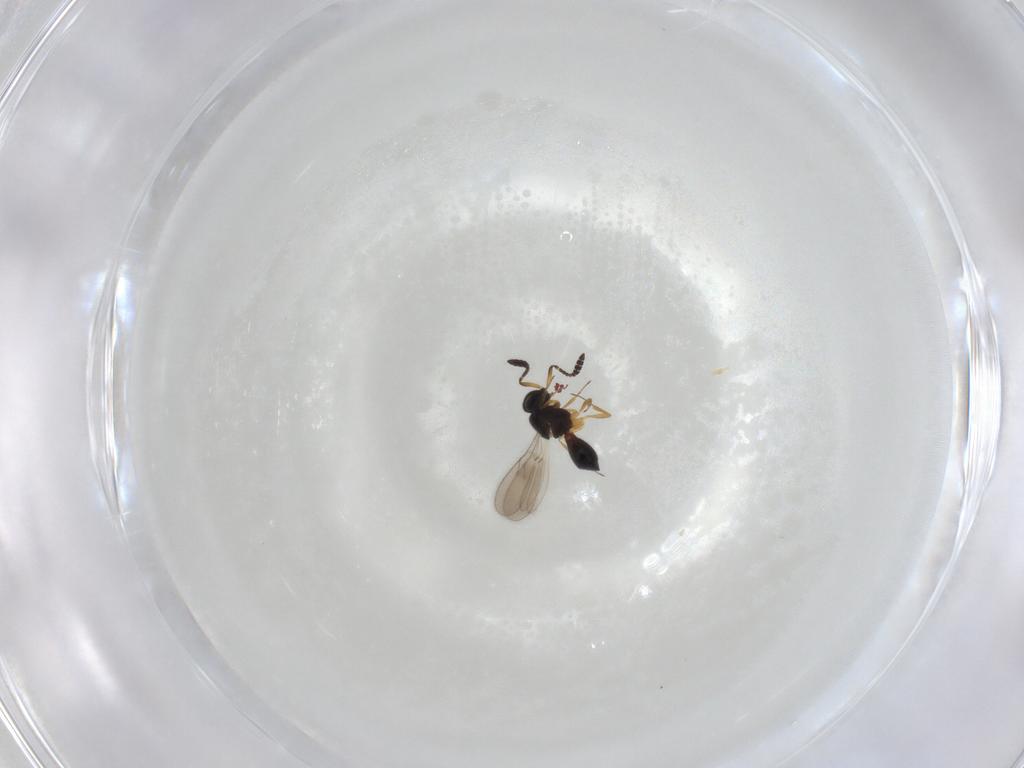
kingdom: Animalia
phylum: Arthropoda
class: Insecta
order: Hymenoptera
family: Scelionidae
